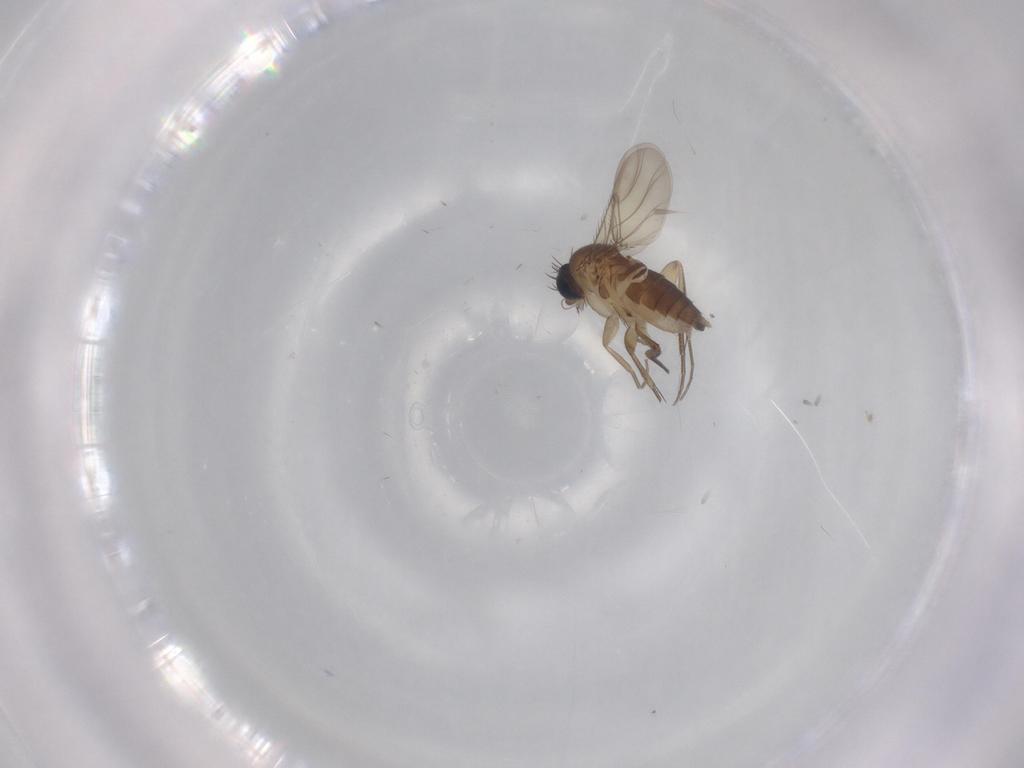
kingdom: Animalia
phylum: Arthropoda
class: Insecta
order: Diptera
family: Phoridae
